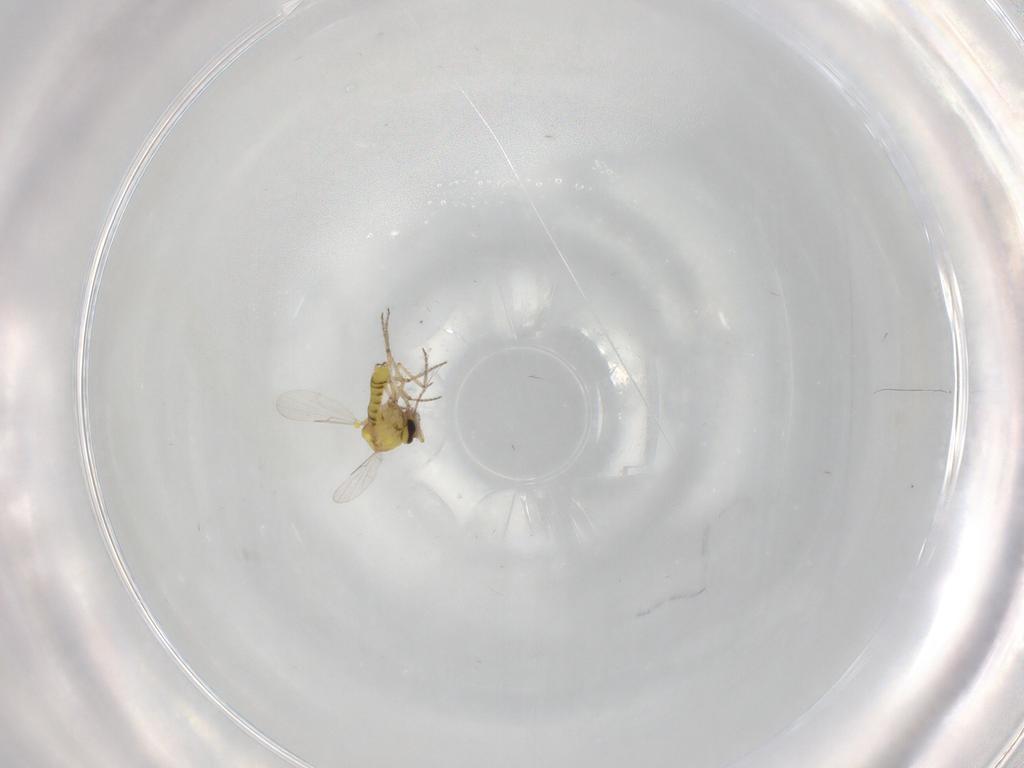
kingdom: Animalia
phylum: Arthropoda
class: Insecta
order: Diptera
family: Ceratopogonidae
